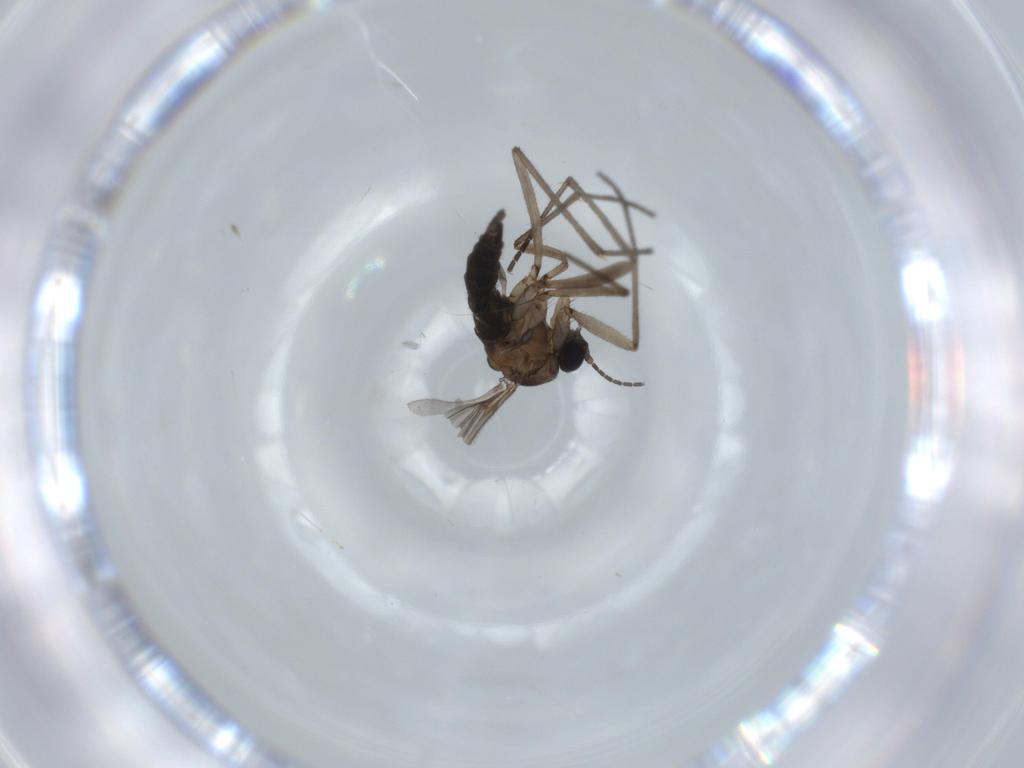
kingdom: Animalia
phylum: Arthropoda
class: Insecta
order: Diptera
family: Sciaridae
